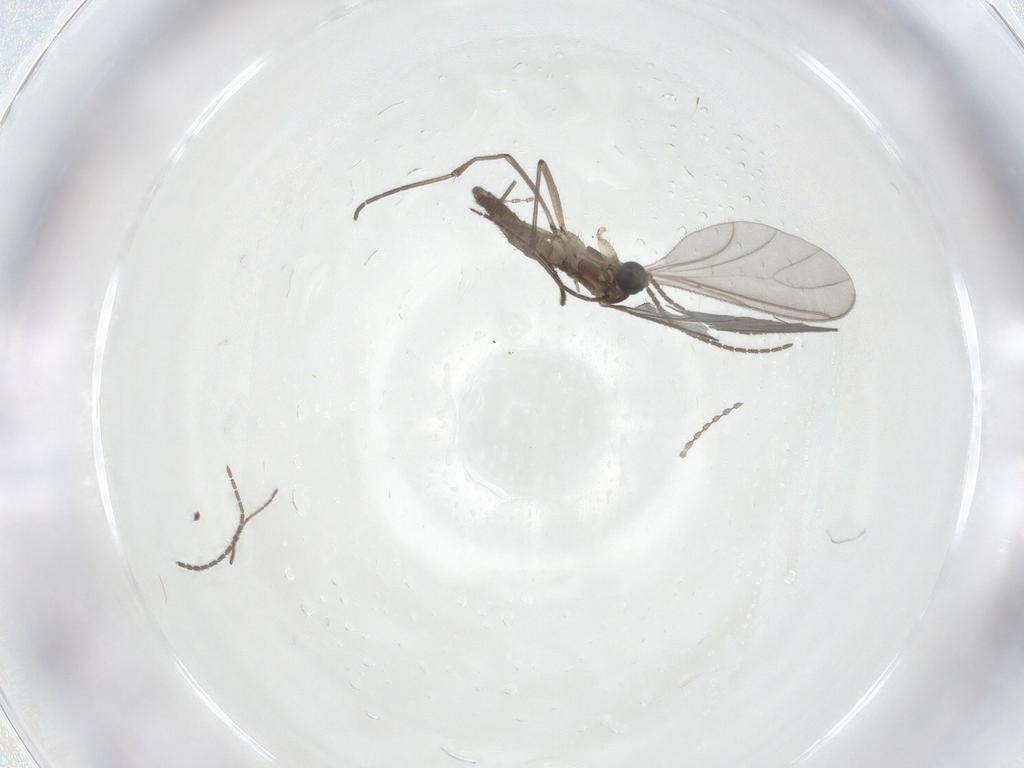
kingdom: Animalia
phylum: Arthropoda
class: Insecta
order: Diptera
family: Sciaridae
